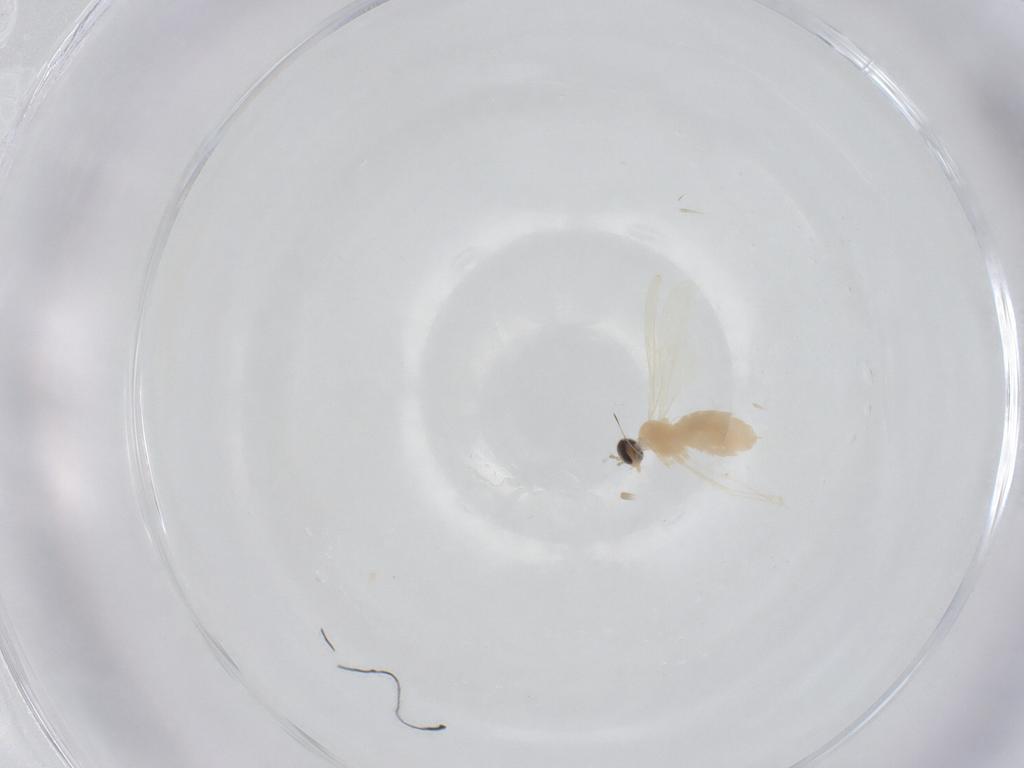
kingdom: Animalia
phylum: Arthropoda
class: Insecta
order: Diptera
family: Cecidomyiidae
